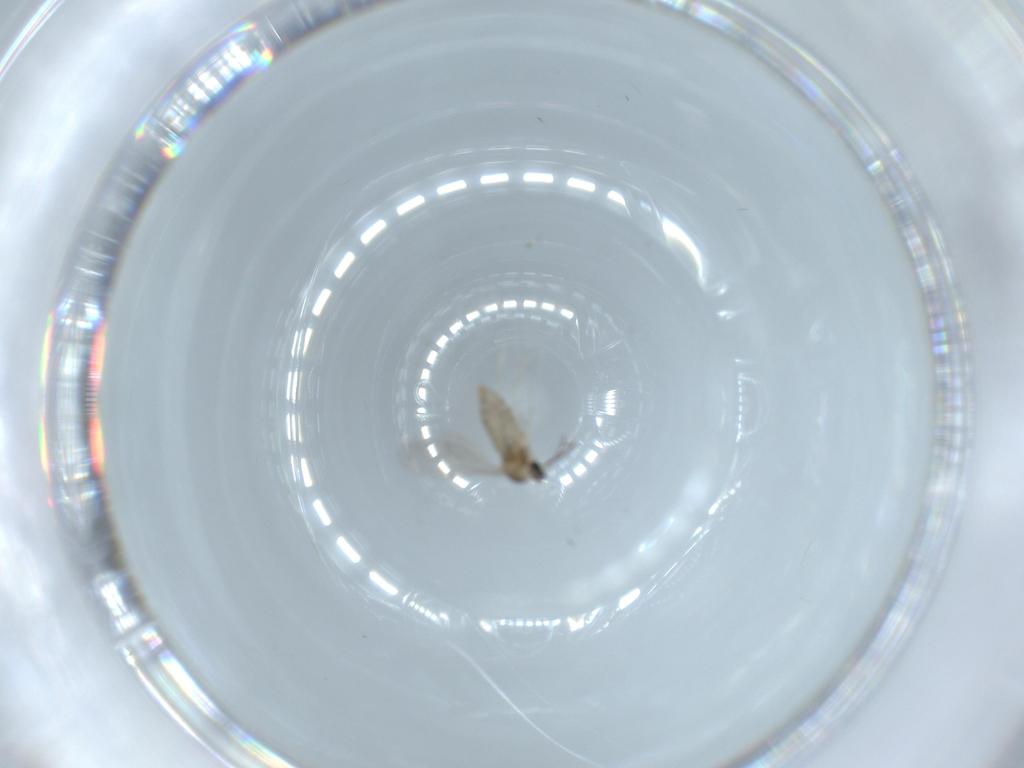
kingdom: Animalia
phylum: Arthropoda
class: Insecta
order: Diptera
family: Cecidomyiidae
